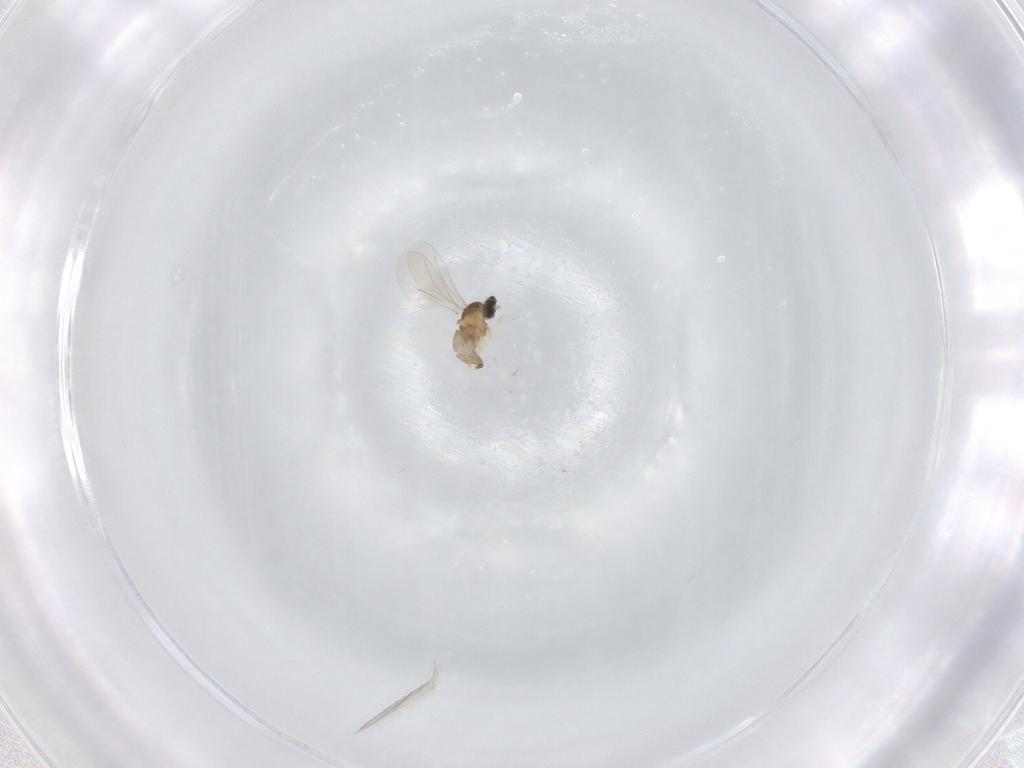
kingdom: Animalia
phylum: Arthropoda
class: Insecta
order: Diptera
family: Cecidomyiidae
